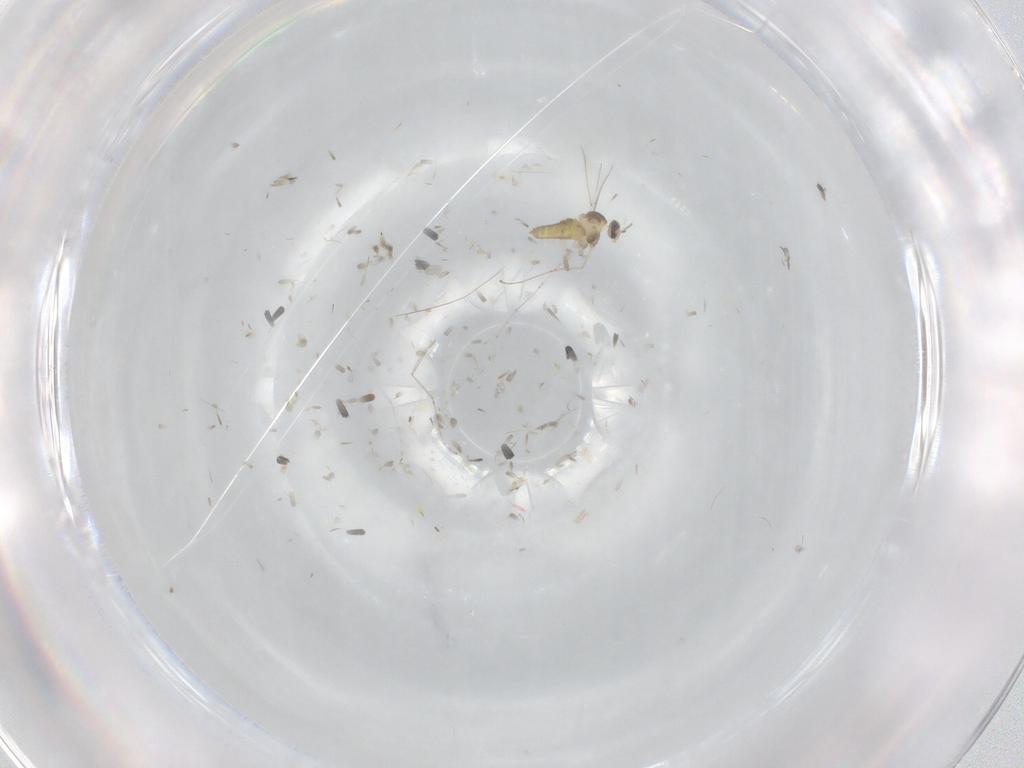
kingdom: Animalia
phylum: Arthropoda
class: Insecta
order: Diptera
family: Cecidomyiidae
